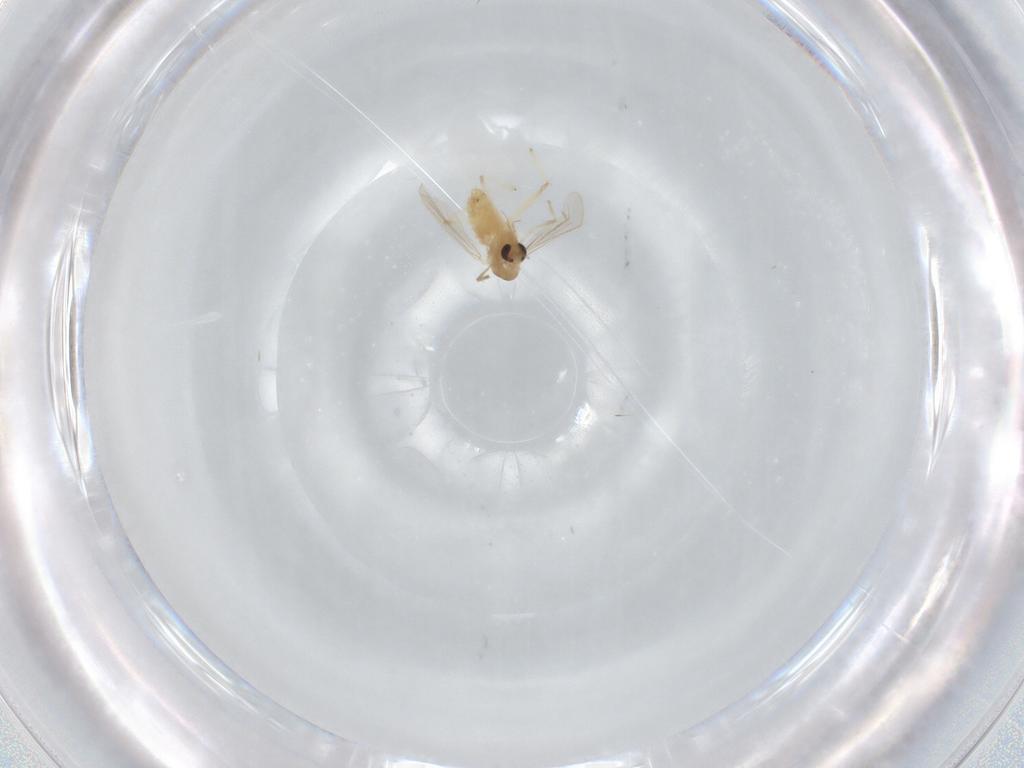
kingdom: Animalia
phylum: Arthropoda
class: Insecta
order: Diptera
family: Chironomidae
